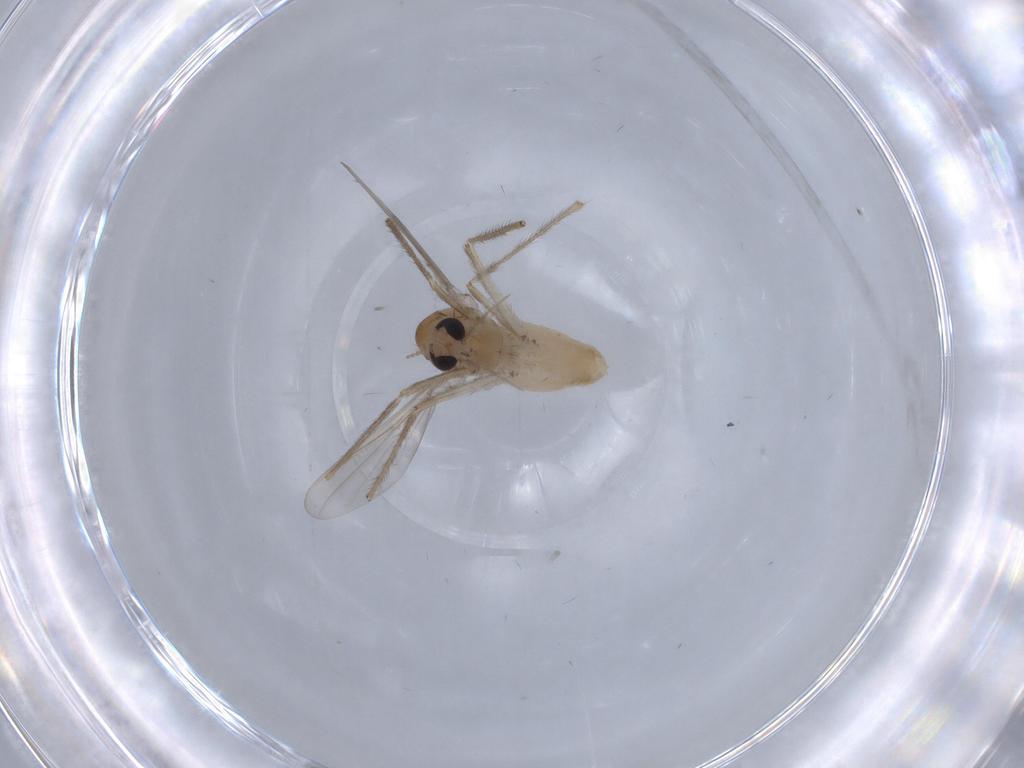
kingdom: Animalia
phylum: Arthropoda
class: Insecta
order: Diptera
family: Chironomidae
